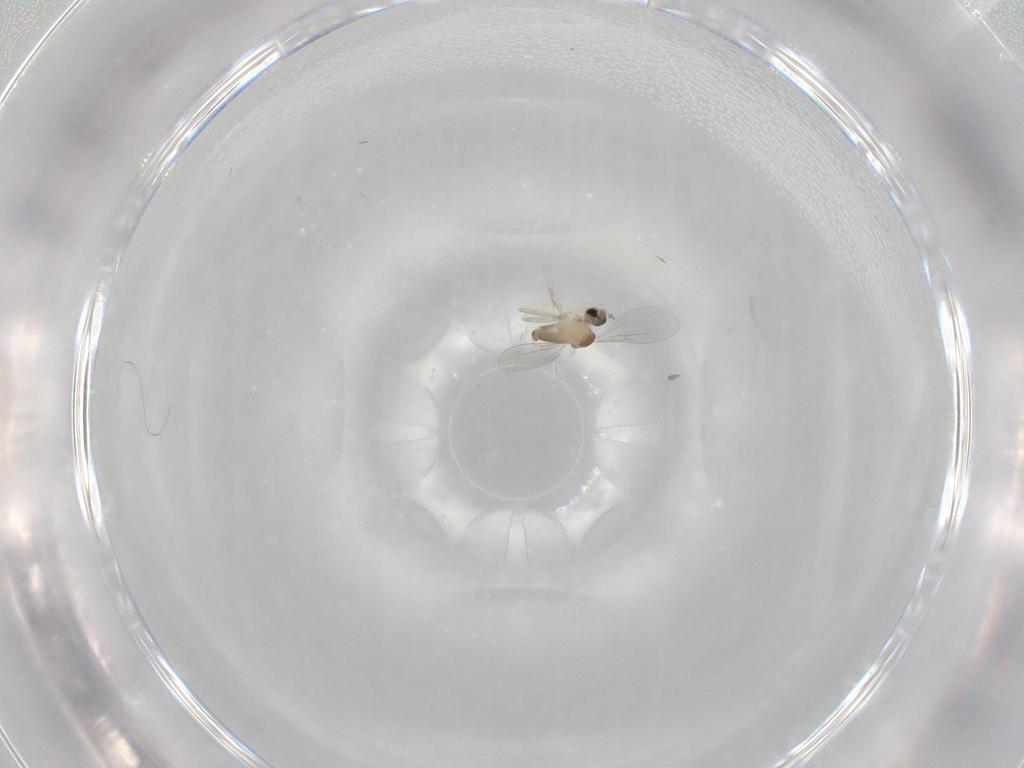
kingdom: Animalia
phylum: Arthropoda
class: Insecta
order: Diptera
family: Cecidomyiidae
